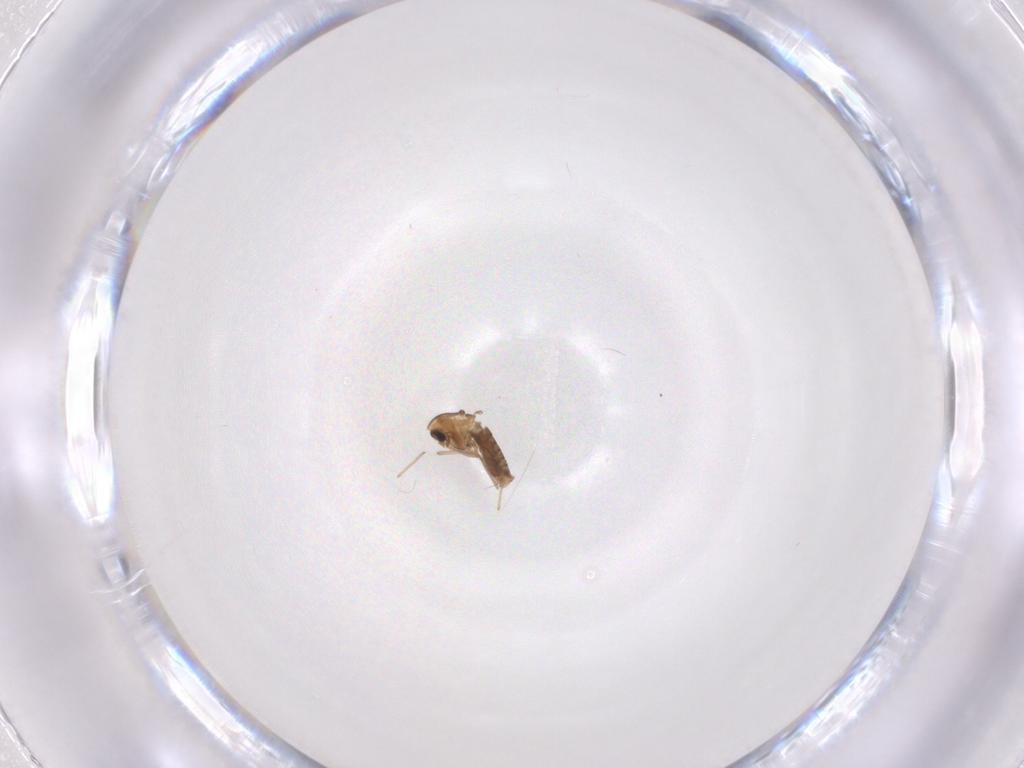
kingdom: Animalia
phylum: Arthropoda
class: Insecta
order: Diptera
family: Chironomidae
